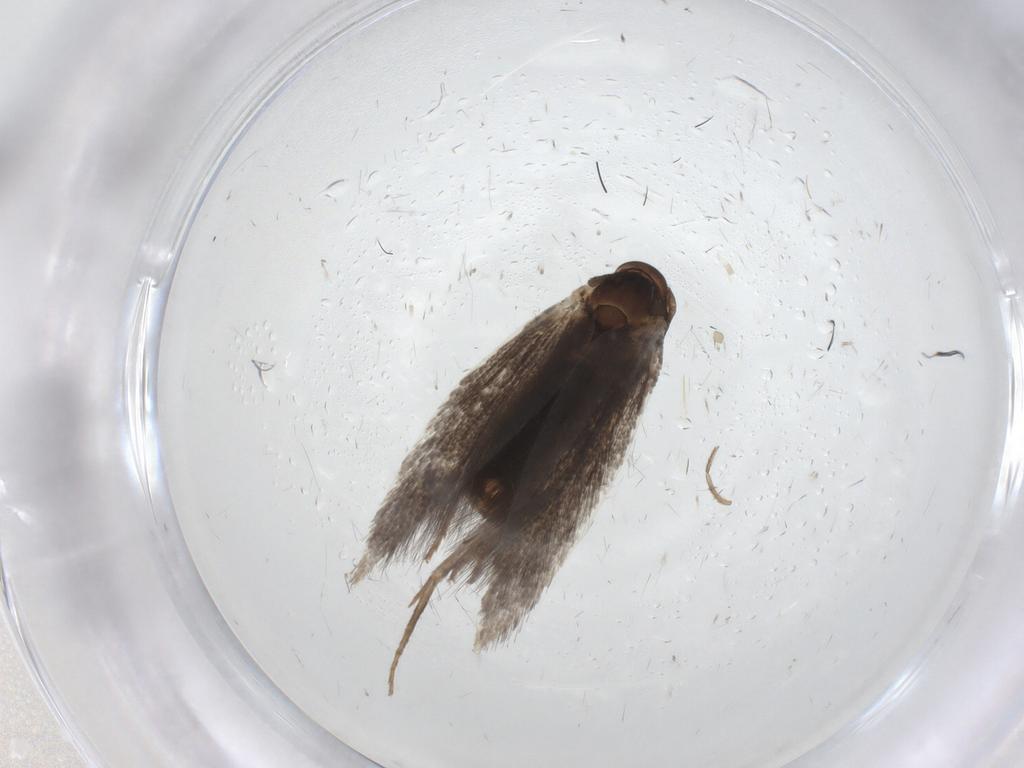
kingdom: Animalia
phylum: Arthropoda
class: Insecta
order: Lepidoptera
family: Elachistidae
